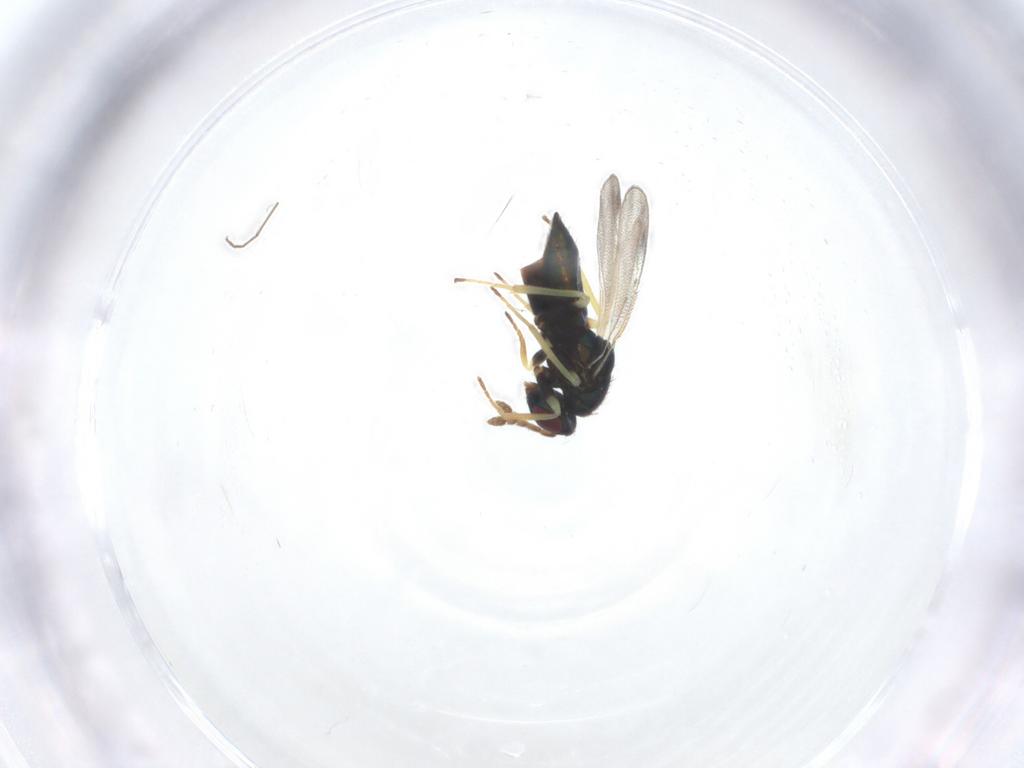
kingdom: Animalia
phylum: Arthropoda
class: Insecta
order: Hymenoptera
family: Eulophidae
